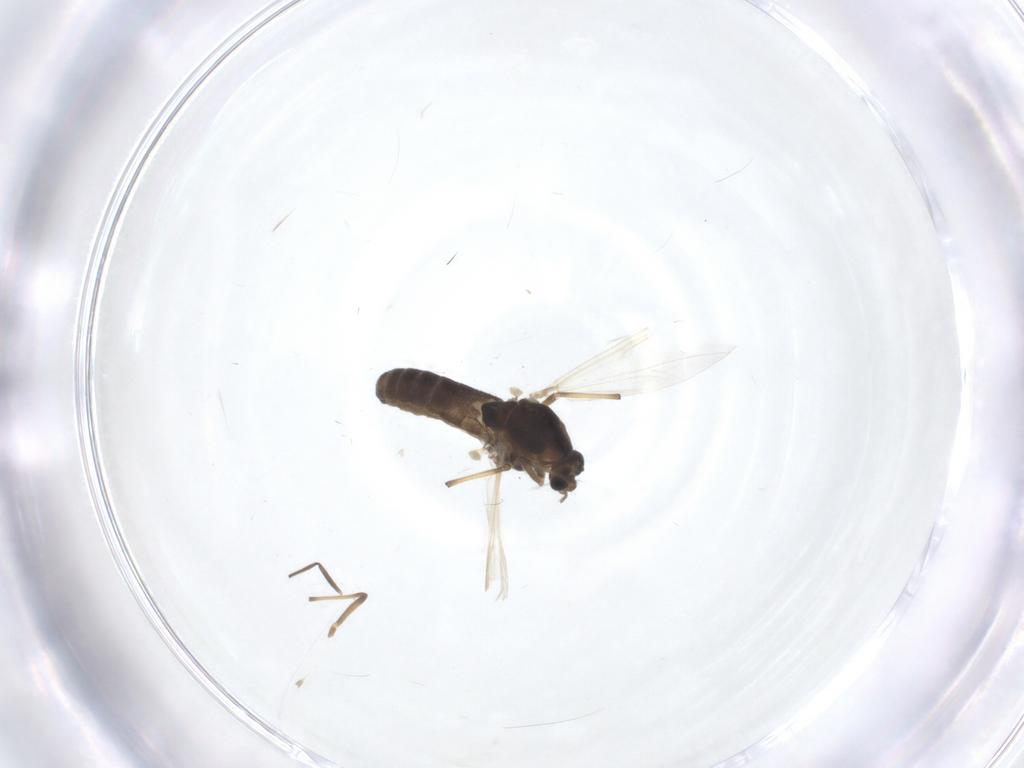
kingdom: Animalia
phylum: Arthropoda
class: Insecta
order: Diptera
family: Chironomidae
